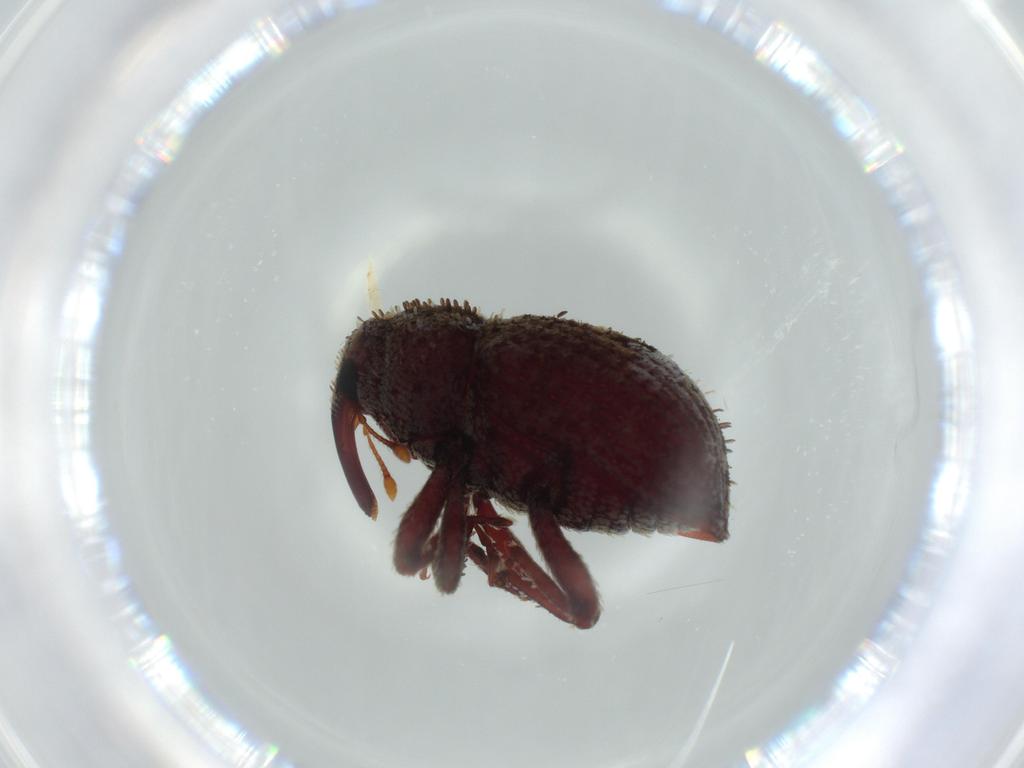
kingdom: Animalia
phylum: Arthropoda
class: Insecta
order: Coleoptera
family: Curculionidae
